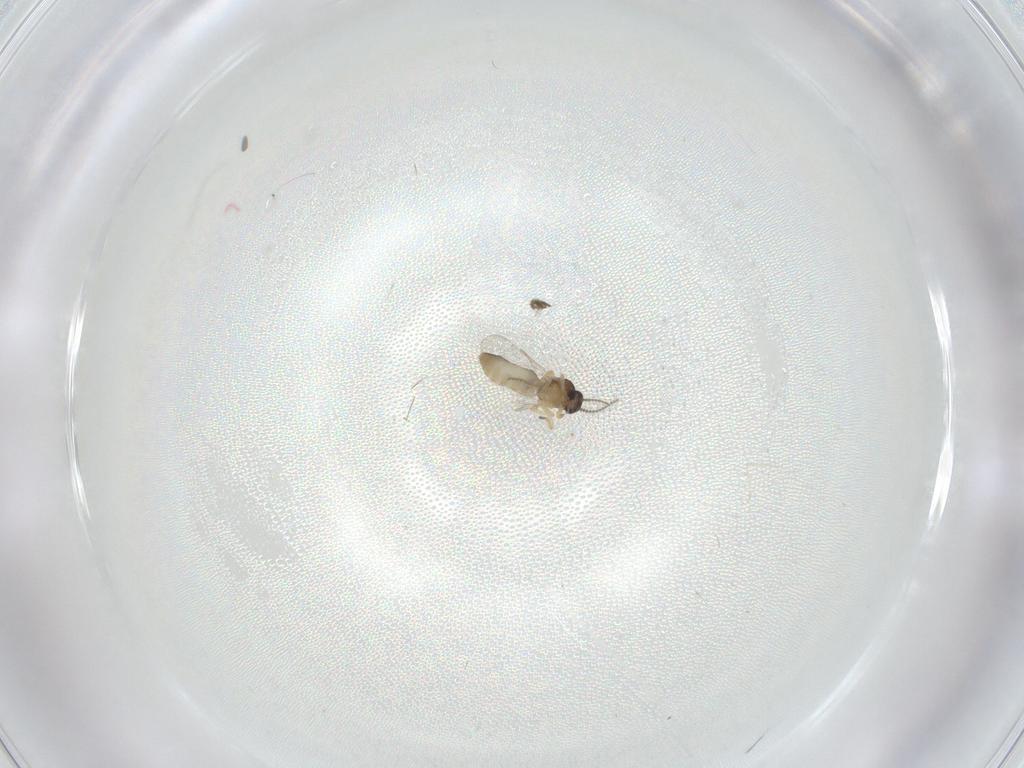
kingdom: Animalia
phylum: Arthropoda
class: Insecta
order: Diptera
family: Ceratopogonidae
